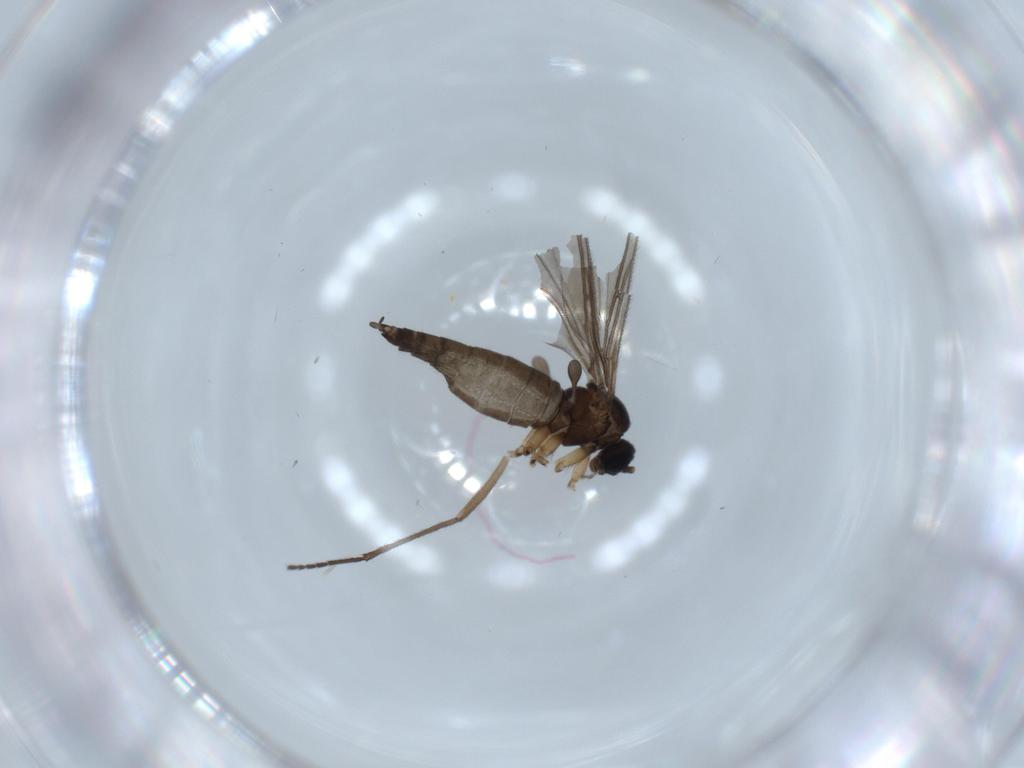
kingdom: Animalia
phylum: Arthropoda
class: Insecta
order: Diptera
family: Sciaridae
